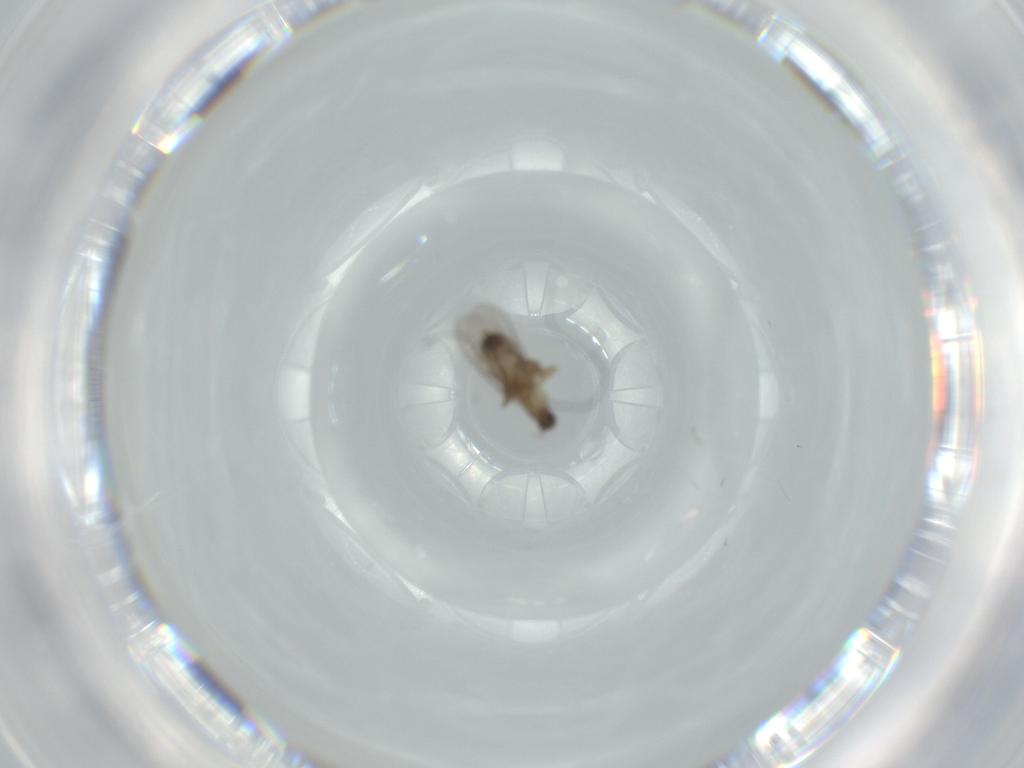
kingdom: Animalia
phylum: Arthropoda
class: Insecta
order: Diptera
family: Phoridae
